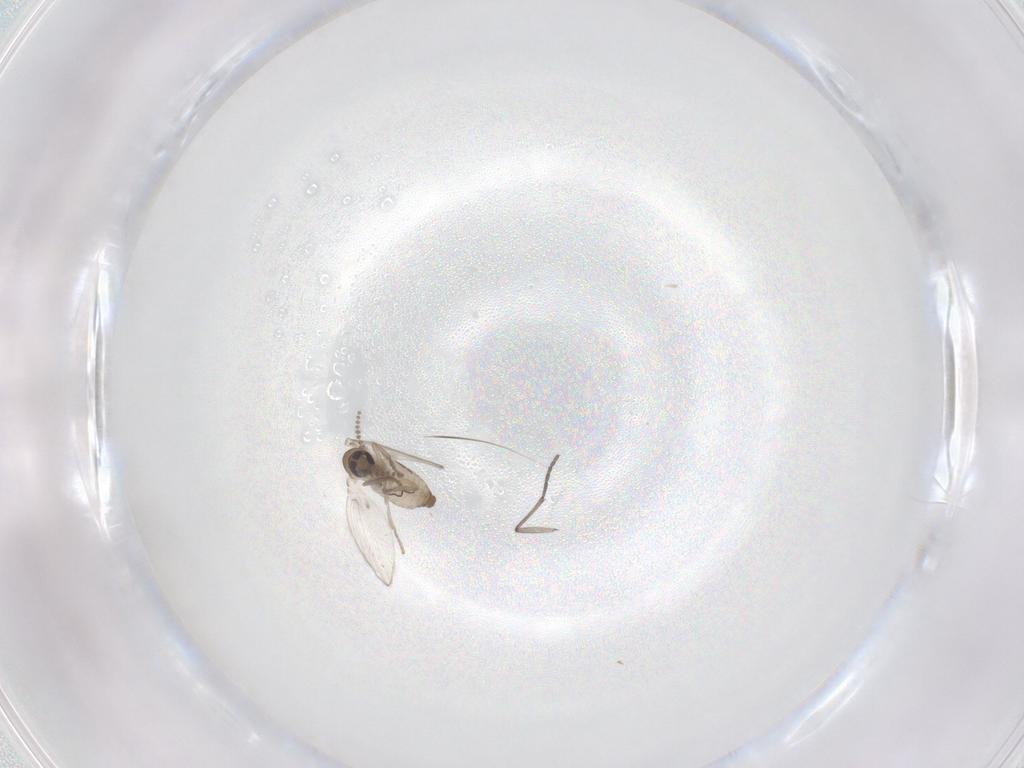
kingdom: Animalia
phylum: Arthropoda
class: Insecta
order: Diptera
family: Sciaridae
